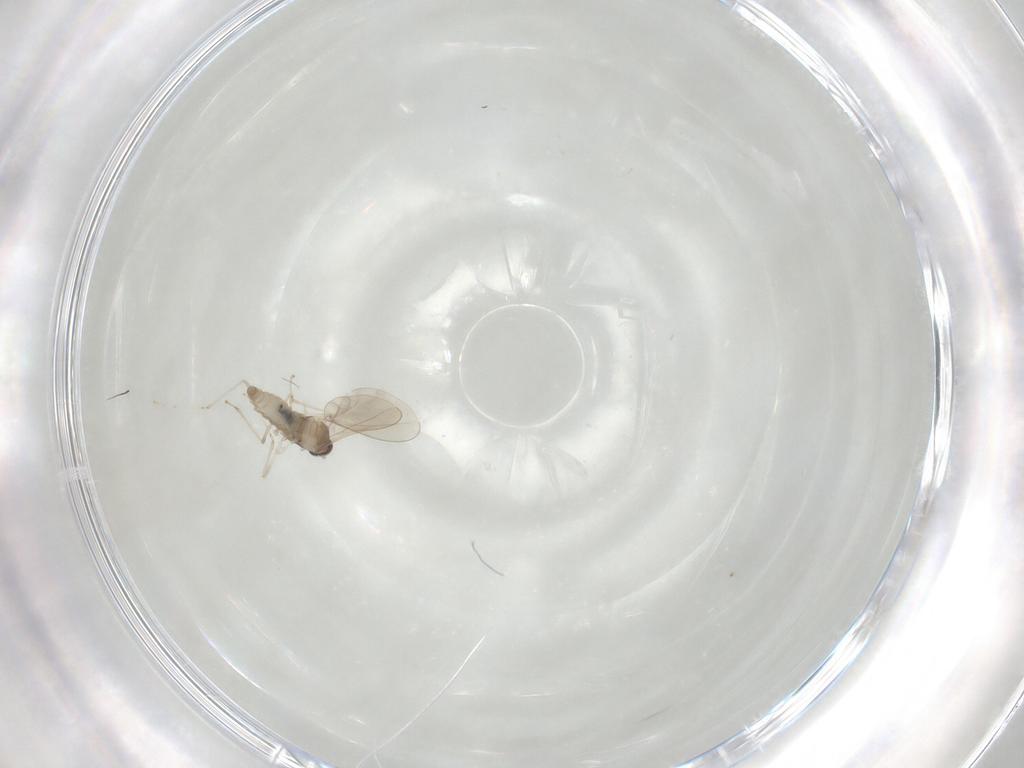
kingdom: Animalia
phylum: Arthropoda
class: Insecta
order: Diptera
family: Cecidomyiidae
